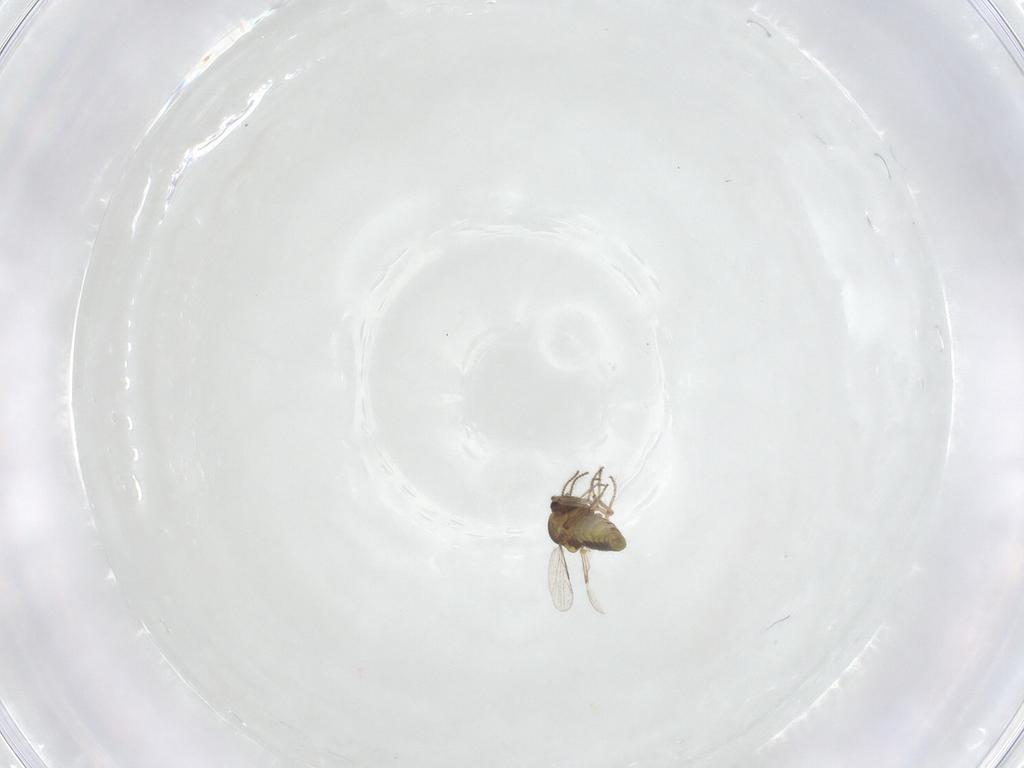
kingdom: Animalia
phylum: Arthropoda
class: Insecta
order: Diptera
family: Ceratopogonidae
